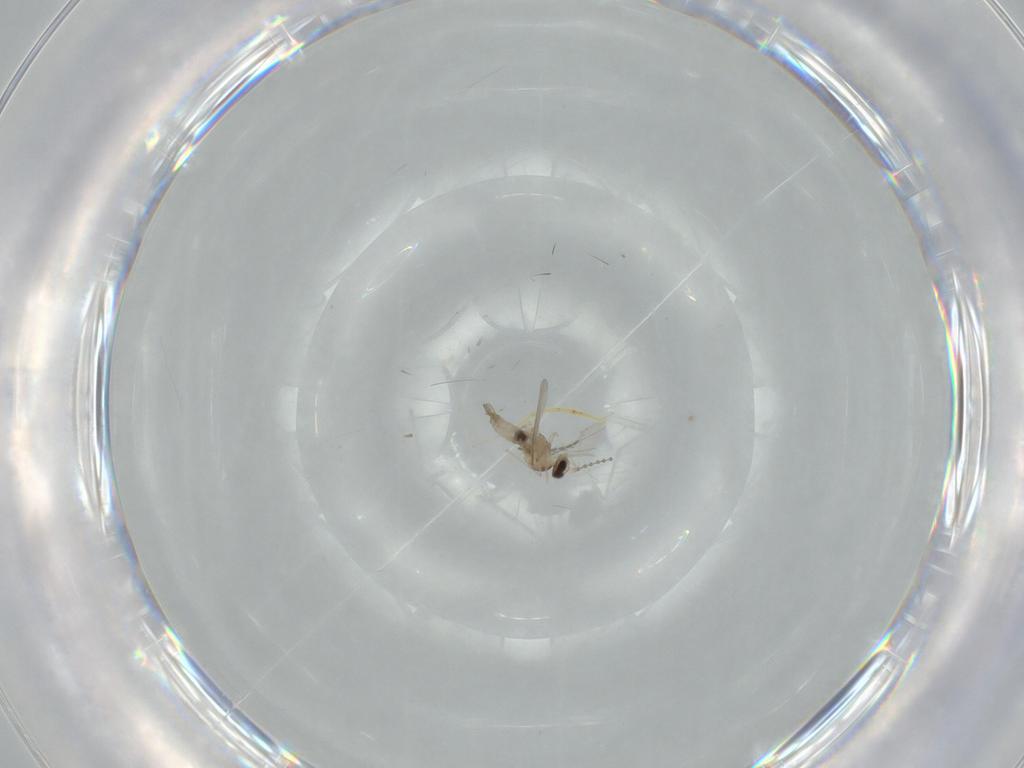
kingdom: Animalia
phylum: Arthropoda
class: Insecta
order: Diptera
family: Cecidomyiidae
